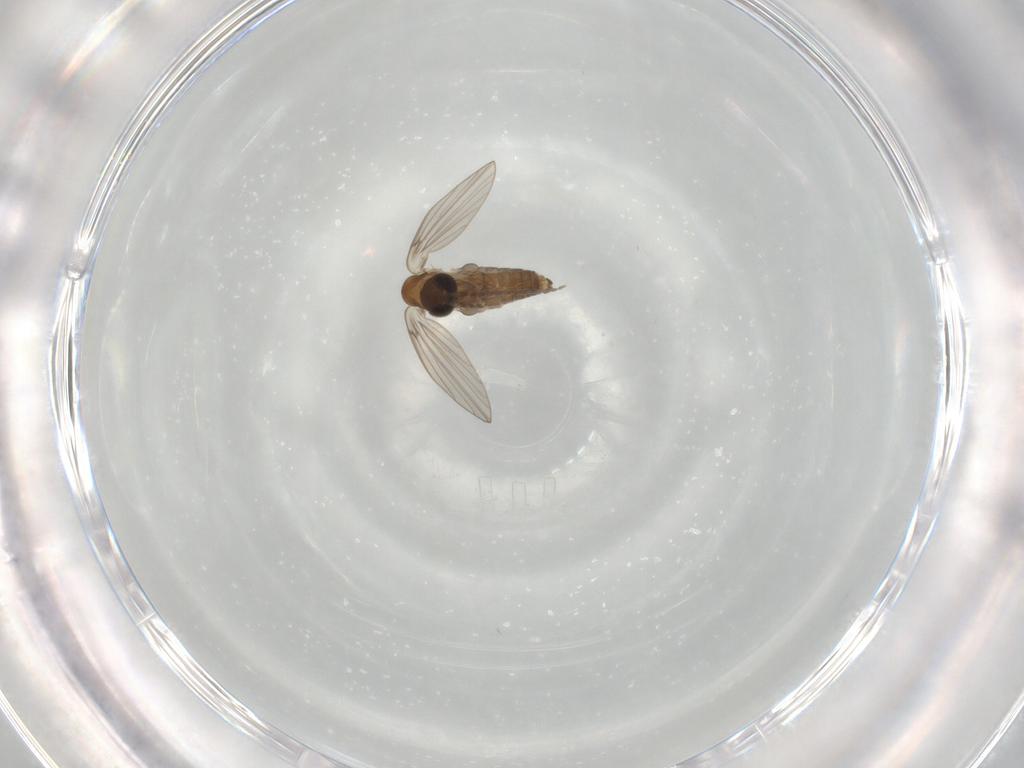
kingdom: Animalia
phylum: Arthropoda
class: Insecta
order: Diptera
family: Psychodidae
